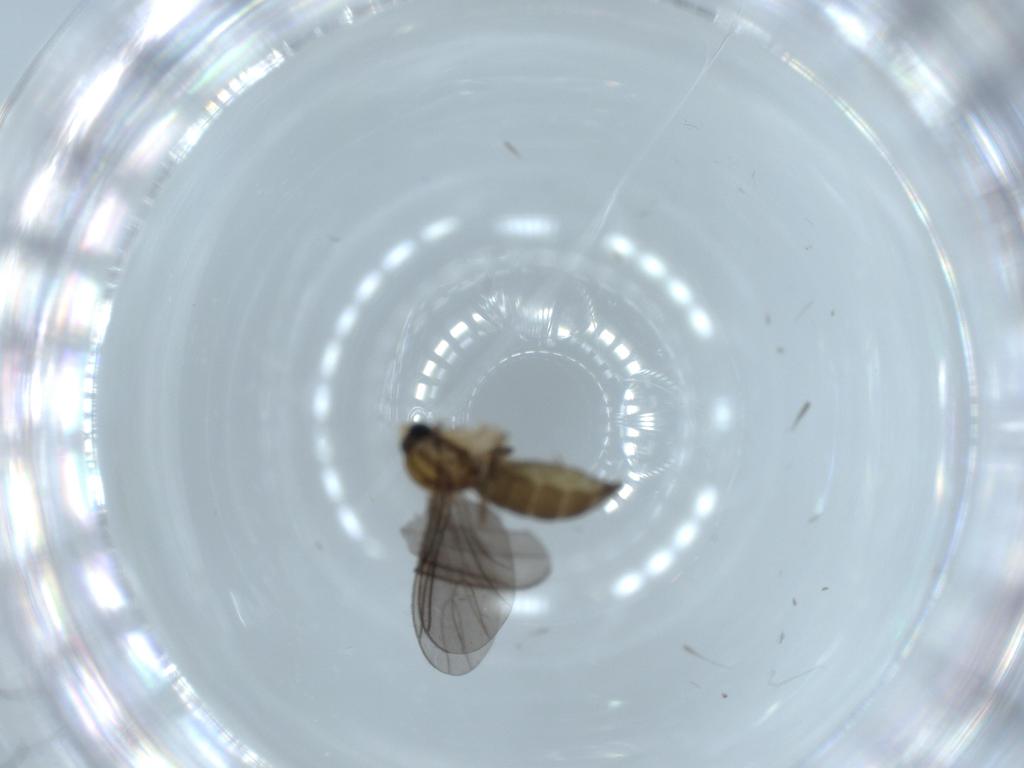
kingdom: Animalia
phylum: Arthropoda
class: Insecta
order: Diptera
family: Sciaridae
